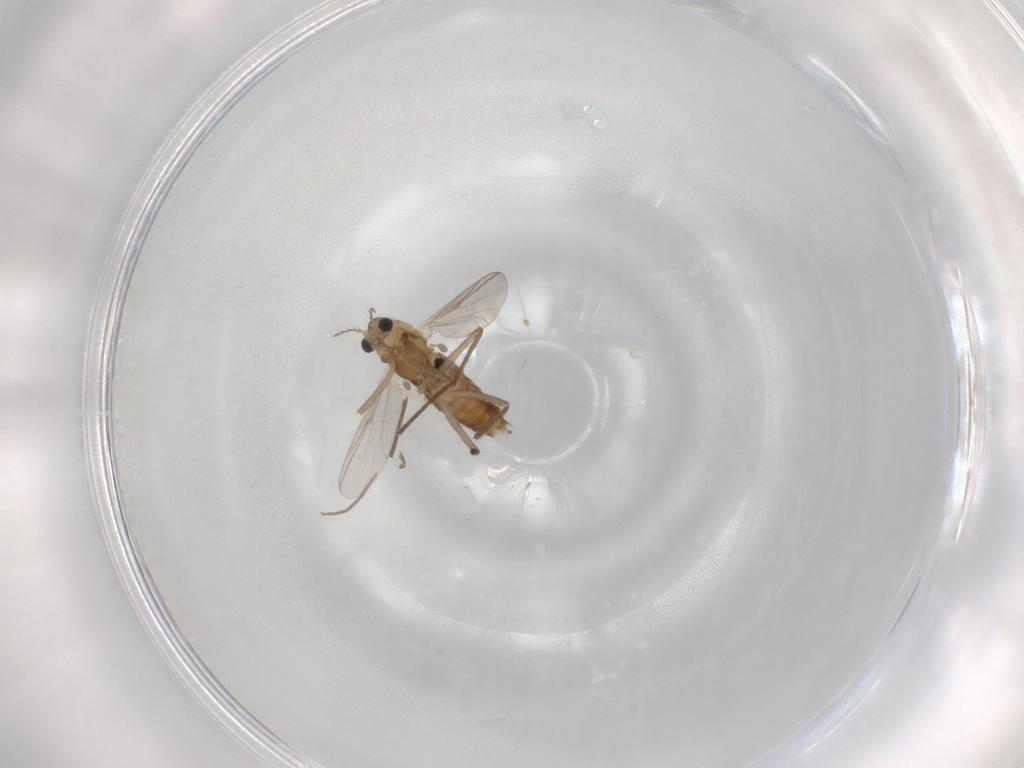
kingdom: Animalia
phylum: Arthropoda
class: Insecta
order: Diptera
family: Chironomidae
